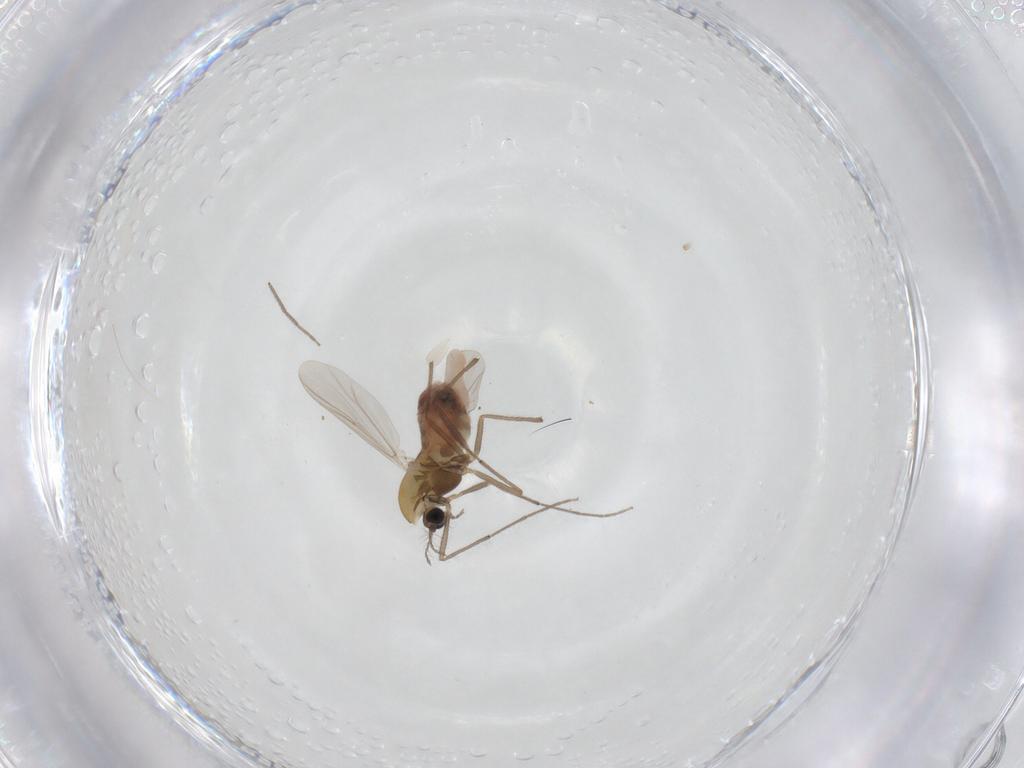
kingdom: Animalia
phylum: Arthropoda
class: Insecta
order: Diptera
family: Chironomidae
